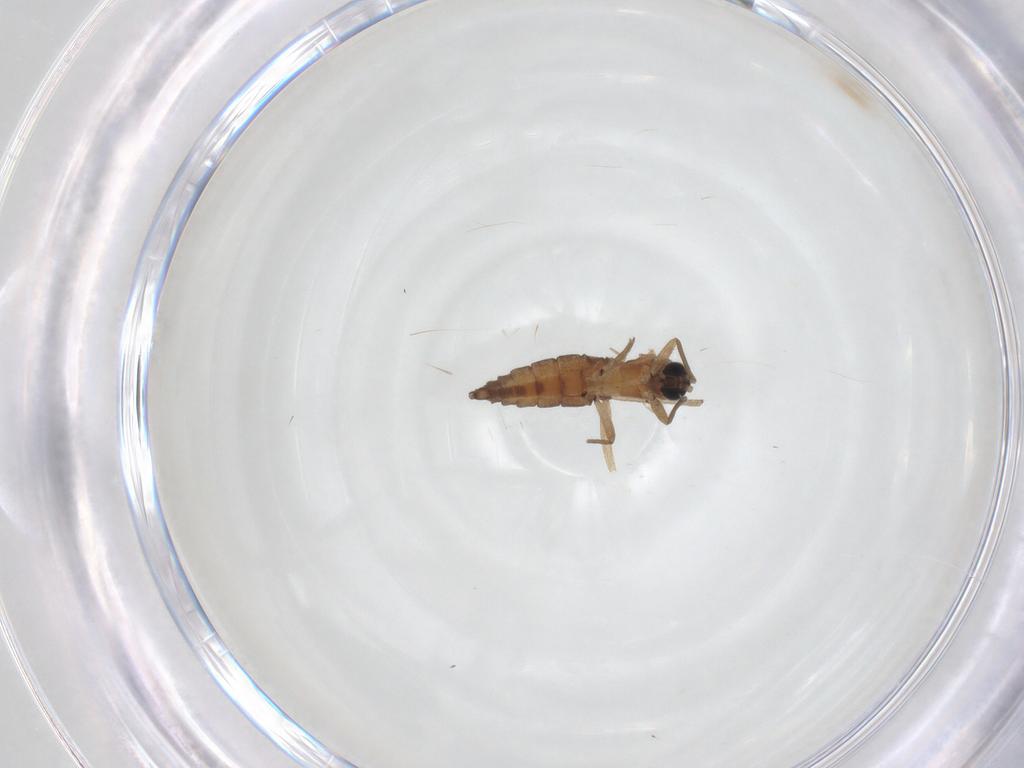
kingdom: Animalia
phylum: Arthropoda
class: Insecta
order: Diptera
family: Sciaridae
